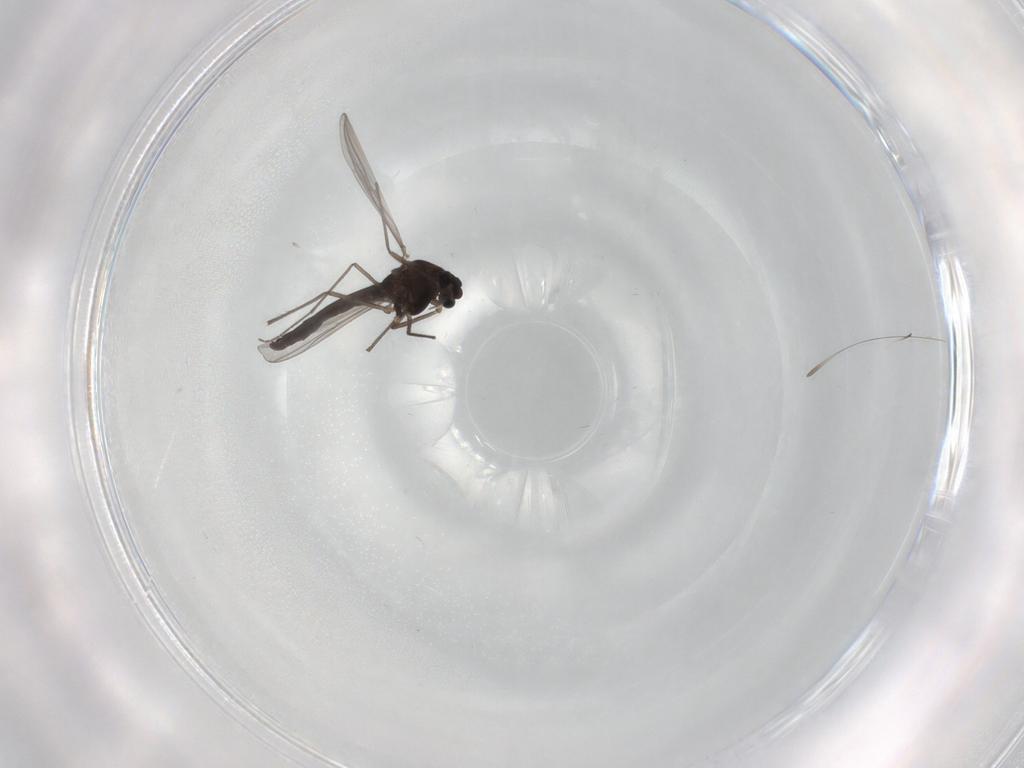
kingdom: Animalia
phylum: Arthropoda
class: Insecta
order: Diptera
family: Chironomidae
